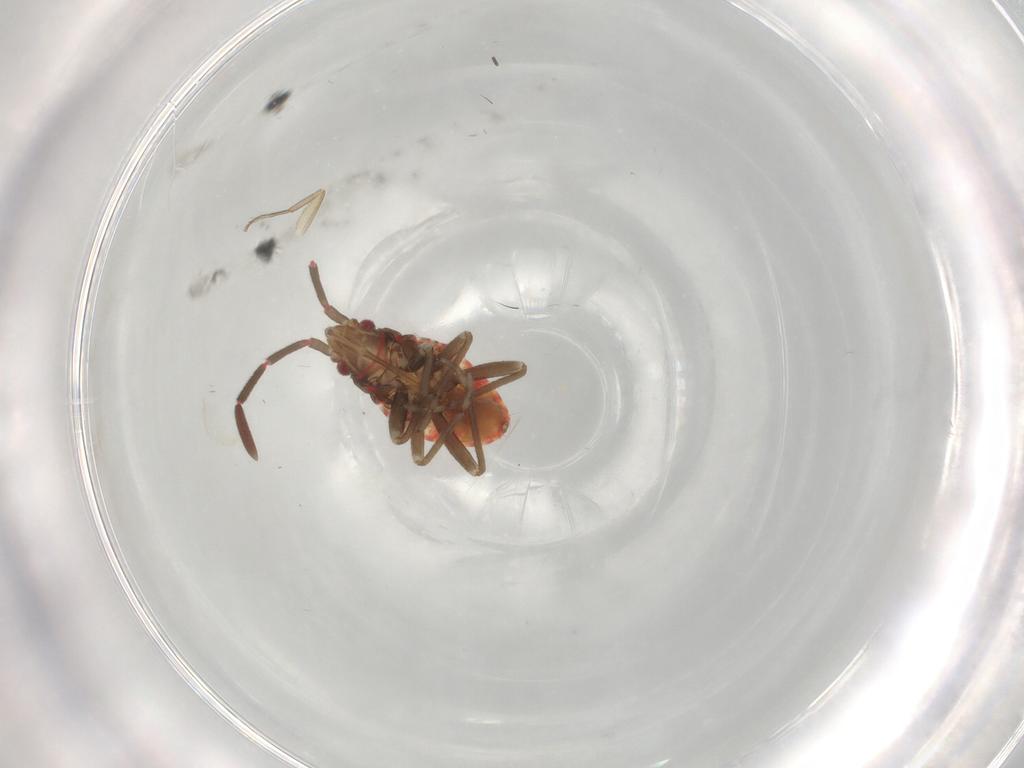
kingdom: Animalia
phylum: Arthropoda
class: Insecta
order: Hemiptera
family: Rhyparochromidae
